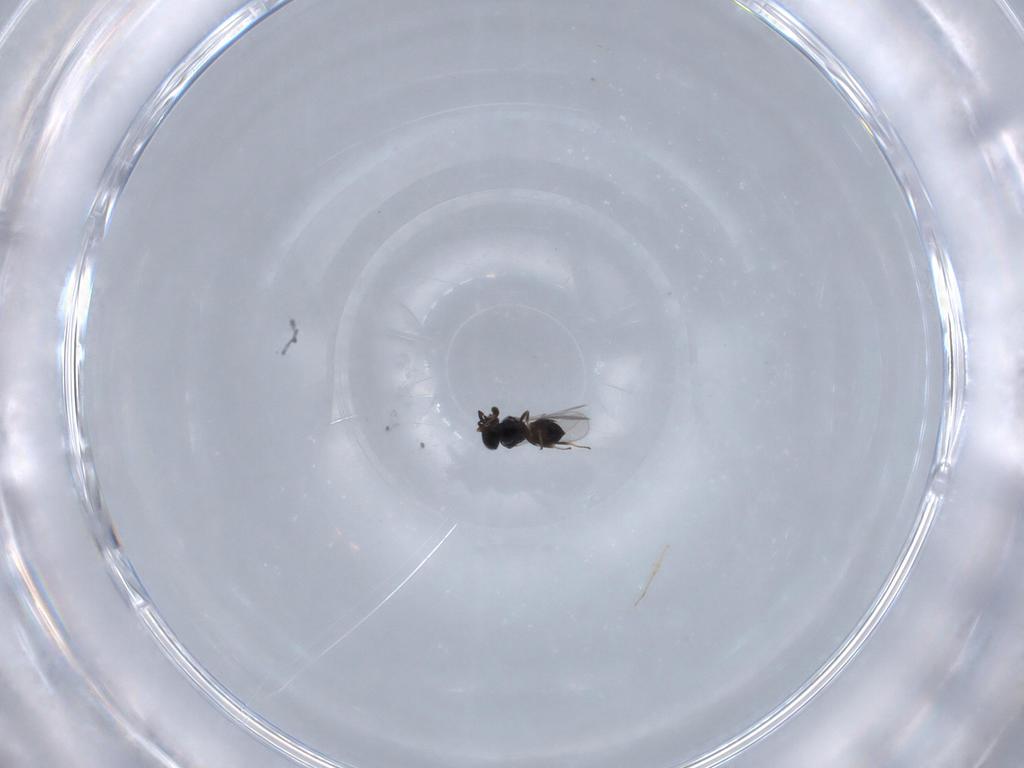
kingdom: Animalia
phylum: Arthropoda
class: Insecta
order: Hymenoptera
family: Scelionidae
